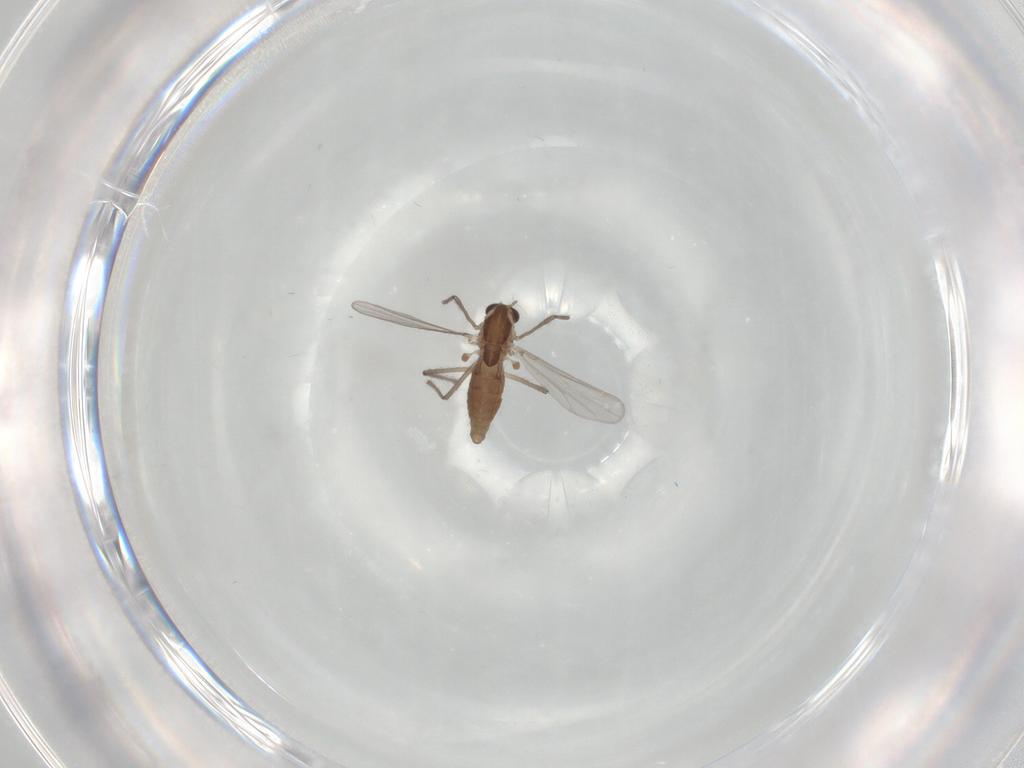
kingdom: Animalia
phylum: Arthropoda
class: Insecta
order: Diptera
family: Chironomidae
